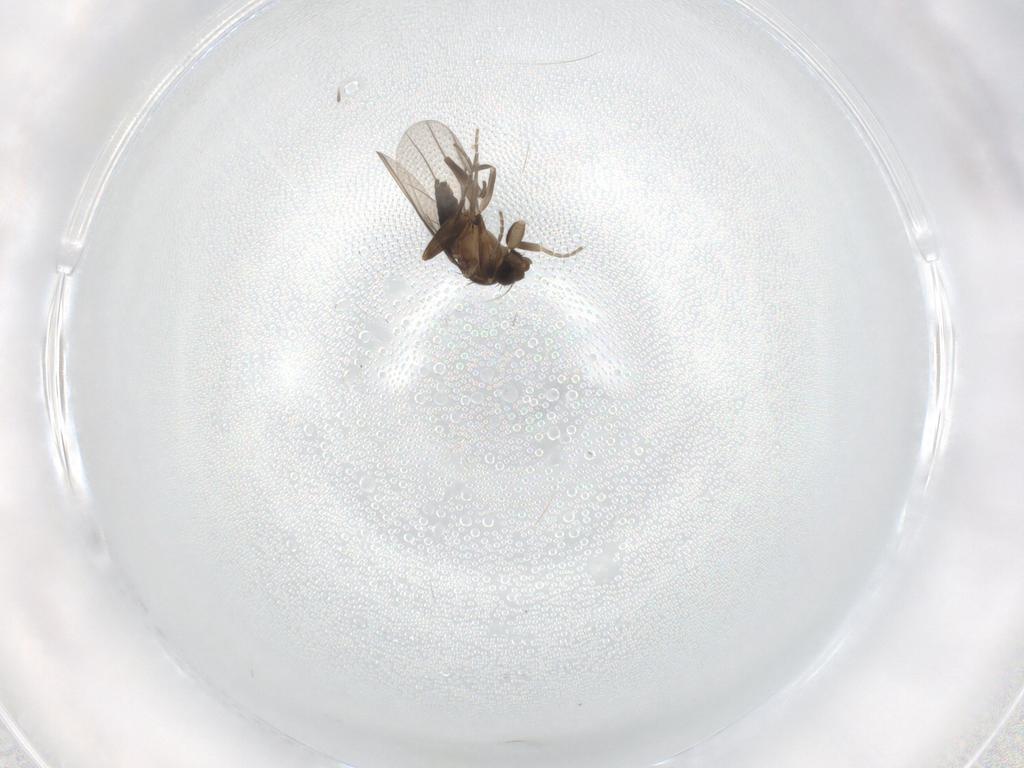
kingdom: Animalia
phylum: Arthropoda
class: Insecta
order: Diptera
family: Phoridae
